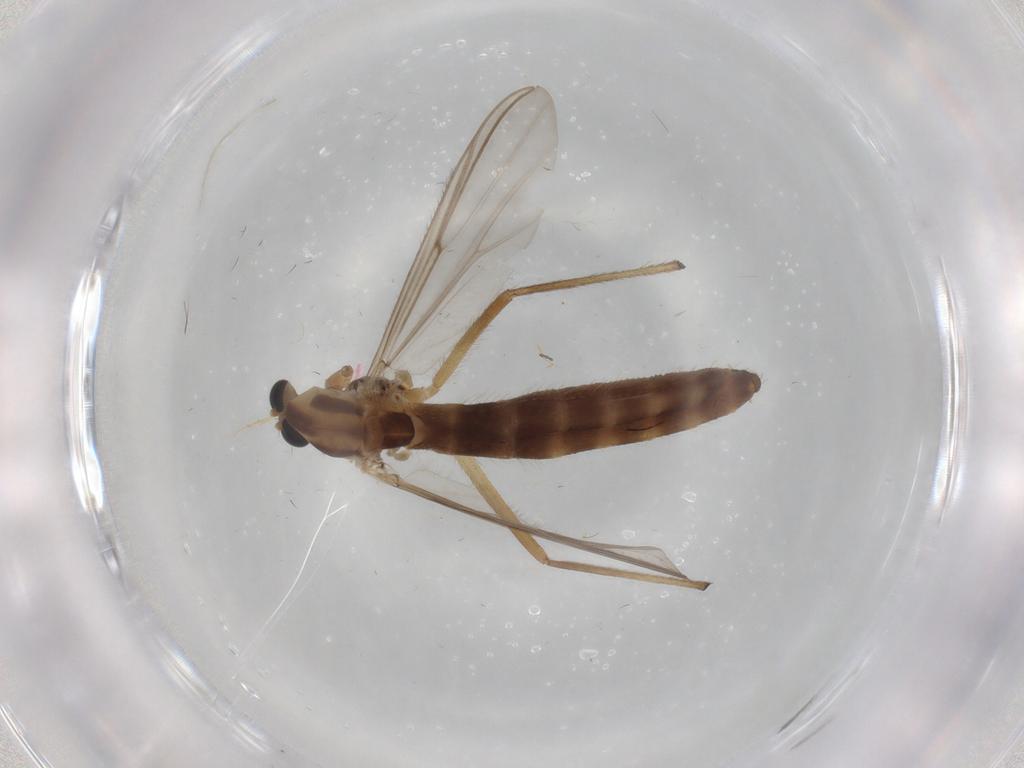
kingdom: Animalia
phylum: Arthropoda
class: Insecta
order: Diptera
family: Chironomidae
